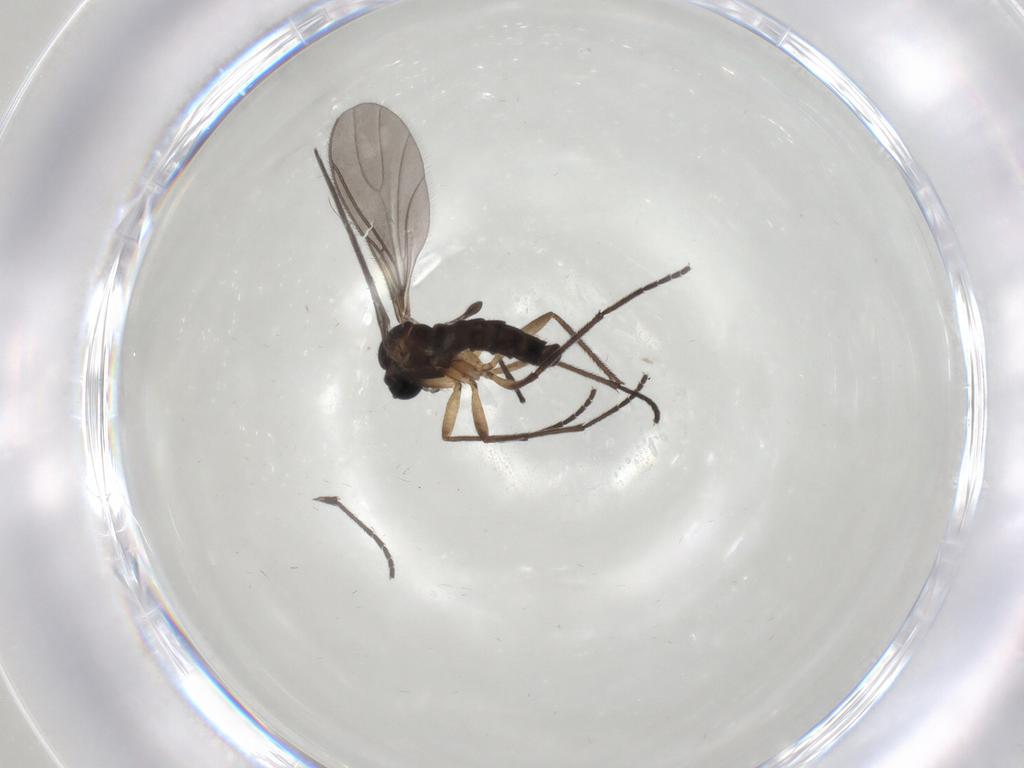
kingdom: Animalia
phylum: Arthropoda
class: Insecta
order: Diptera
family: Sciaridae
